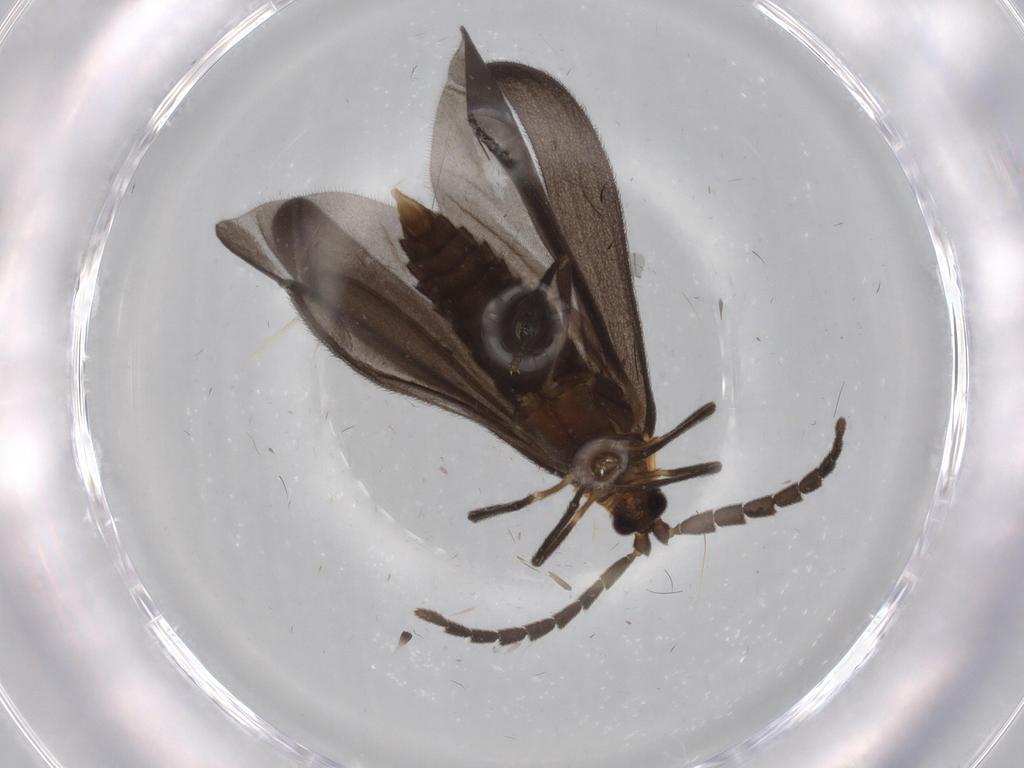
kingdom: Animalia
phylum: Arthropoda
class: Insecta
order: Coleoptera
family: Lycidae
